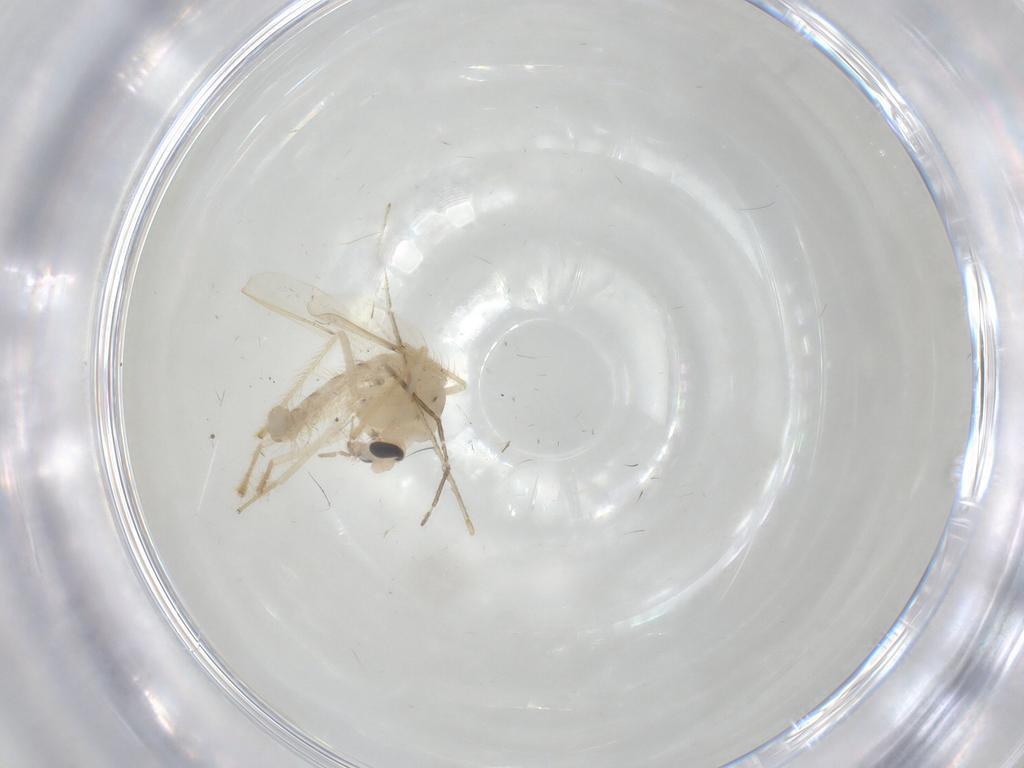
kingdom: Animalia
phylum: Arthropoda
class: Insecta
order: Diptera
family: Chironomidae
